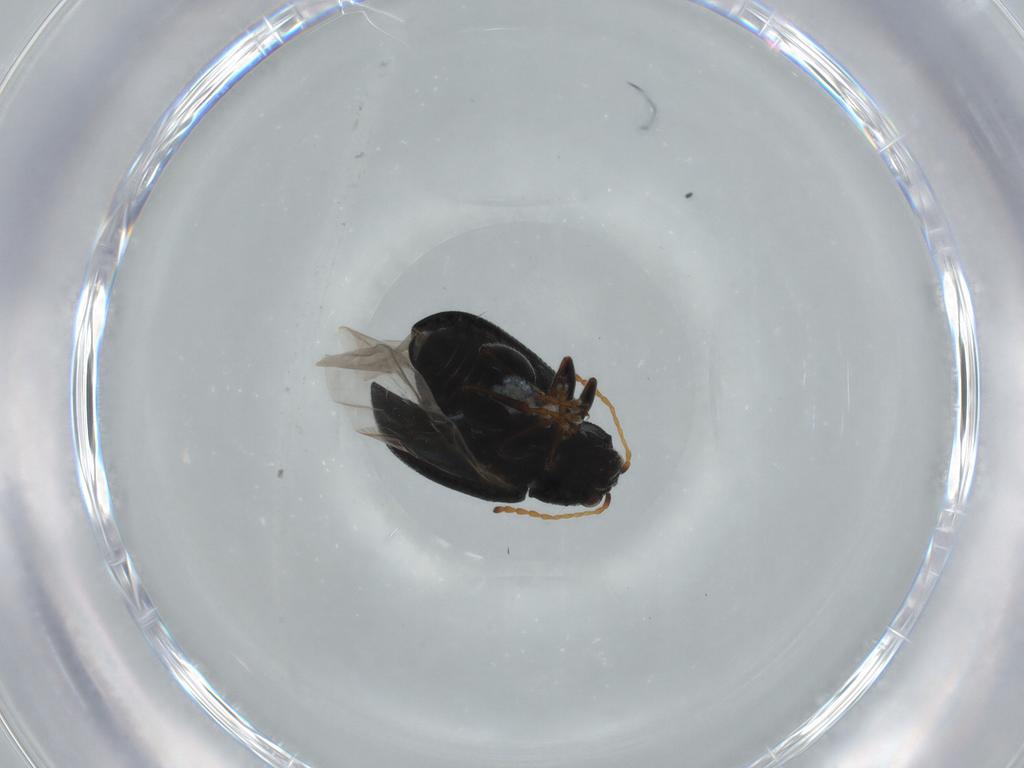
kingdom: Animalia
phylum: Arthropoda
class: Insecta
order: Coleoptera
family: Chrysomelidae
